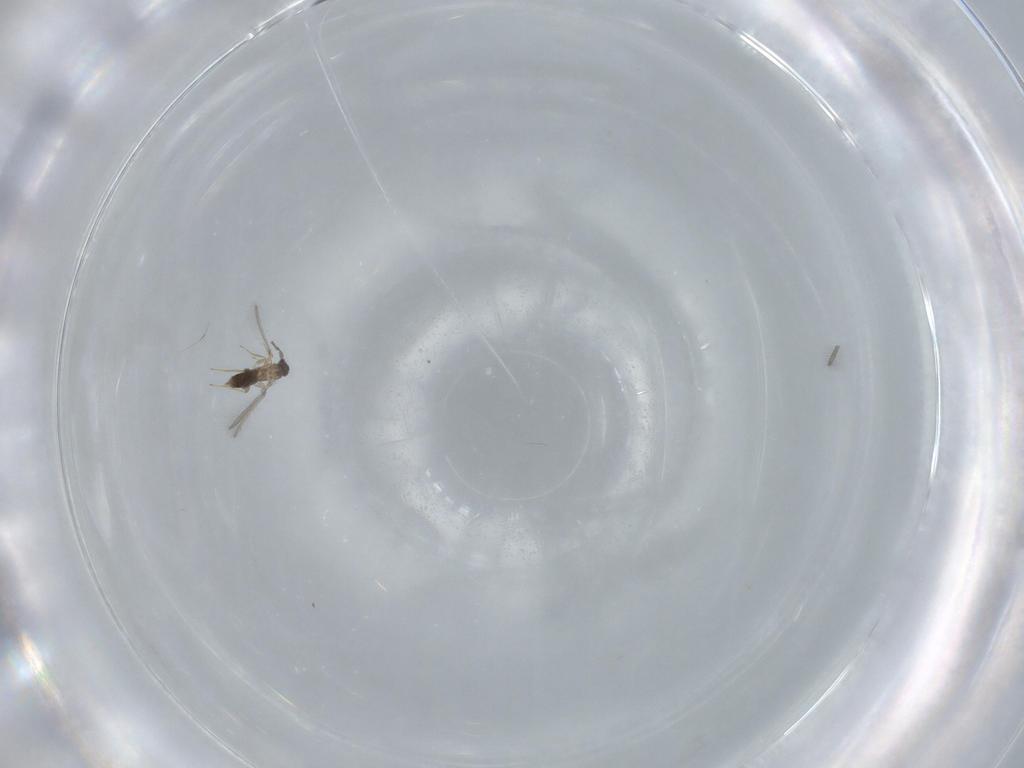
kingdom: Animalia
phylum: Arthropoda
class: Insecta
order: Hymenoptera
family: Mymaridae
